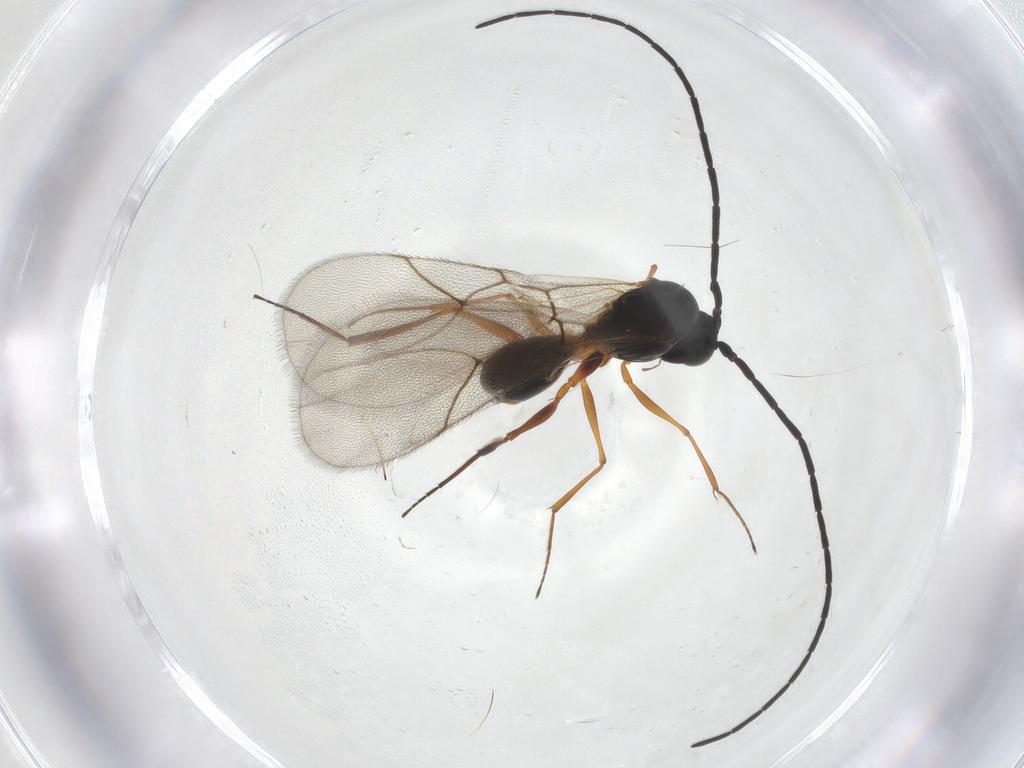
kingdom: Animalia
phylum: Arthropoda
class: Insecta
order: Hymenoptera
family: Figitidae
